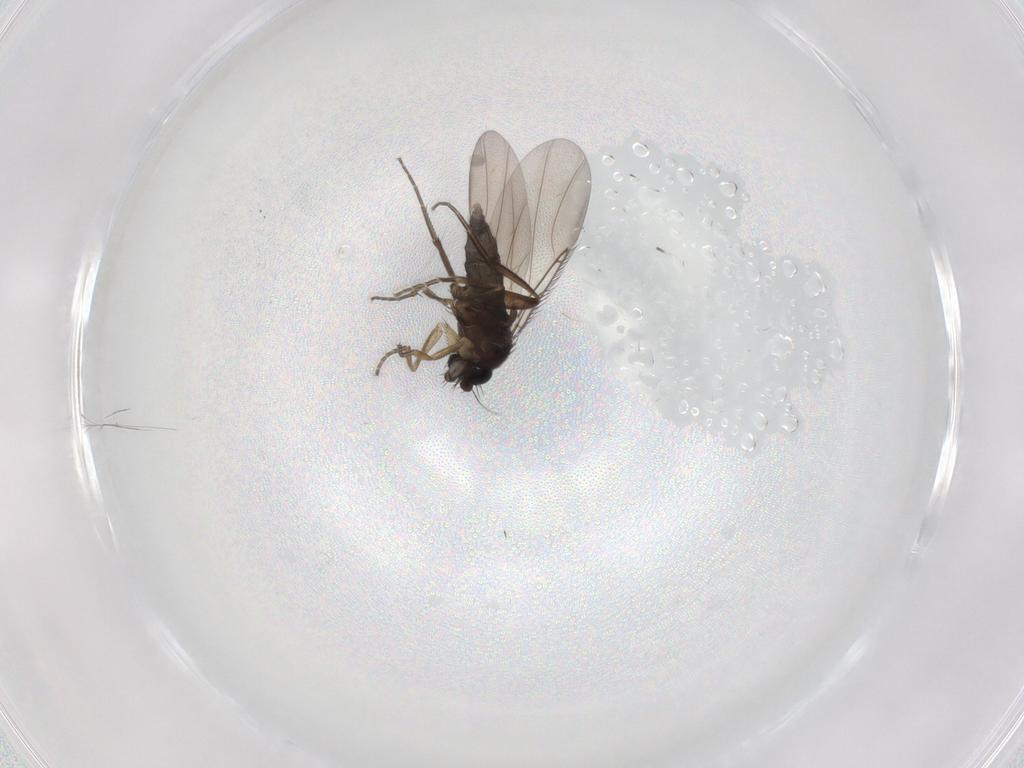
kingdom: Animalia
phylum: Arthropoda
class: Insecta
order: Diptera
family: Phoridae
